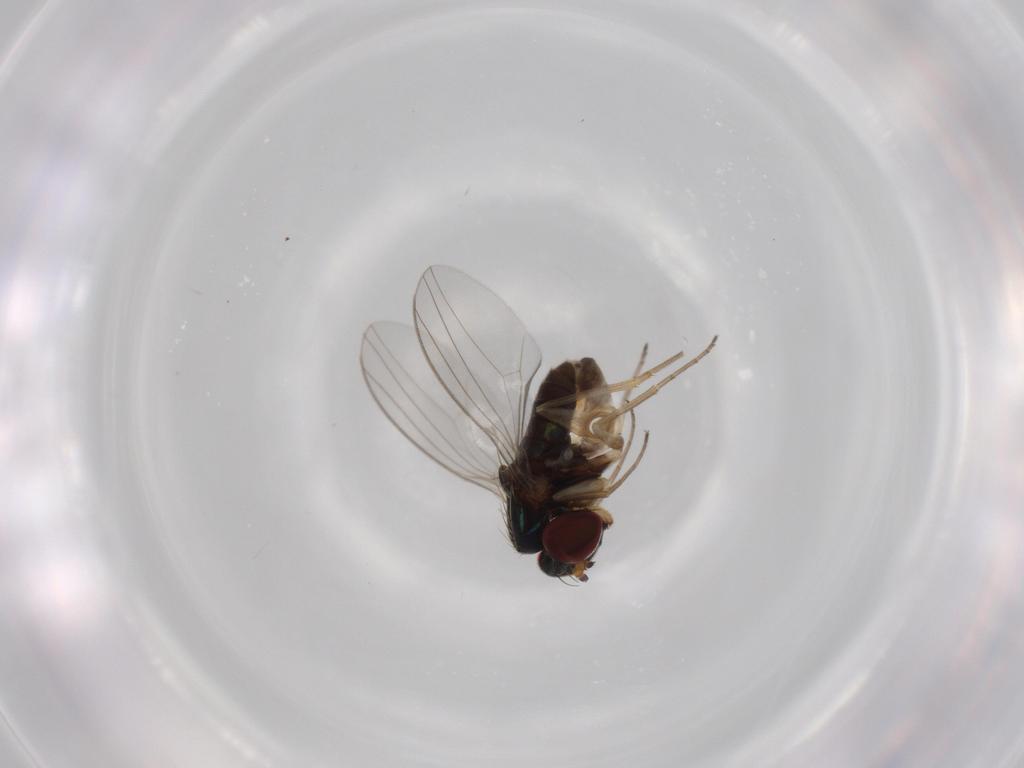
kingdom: Animalia
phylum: Arthropoda
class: Insecta
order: Diptera
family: Dolichopodidae
